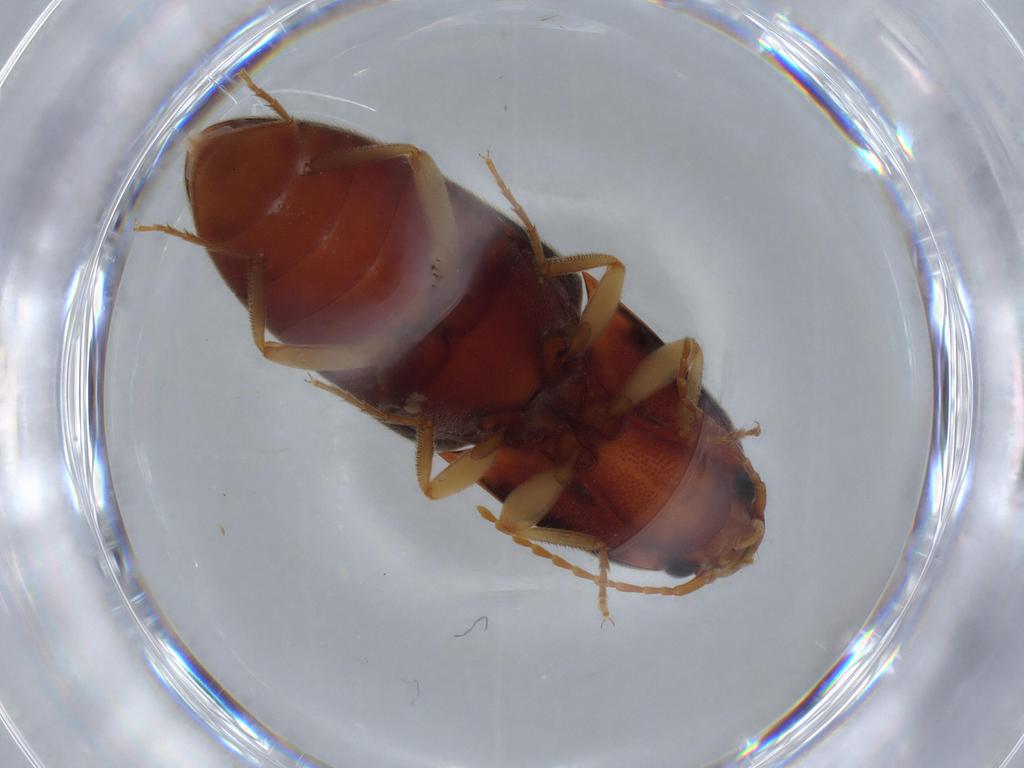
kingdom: Animalia
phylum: Arthropoda
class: Insecta
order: Coleoptera
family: Elateridae
